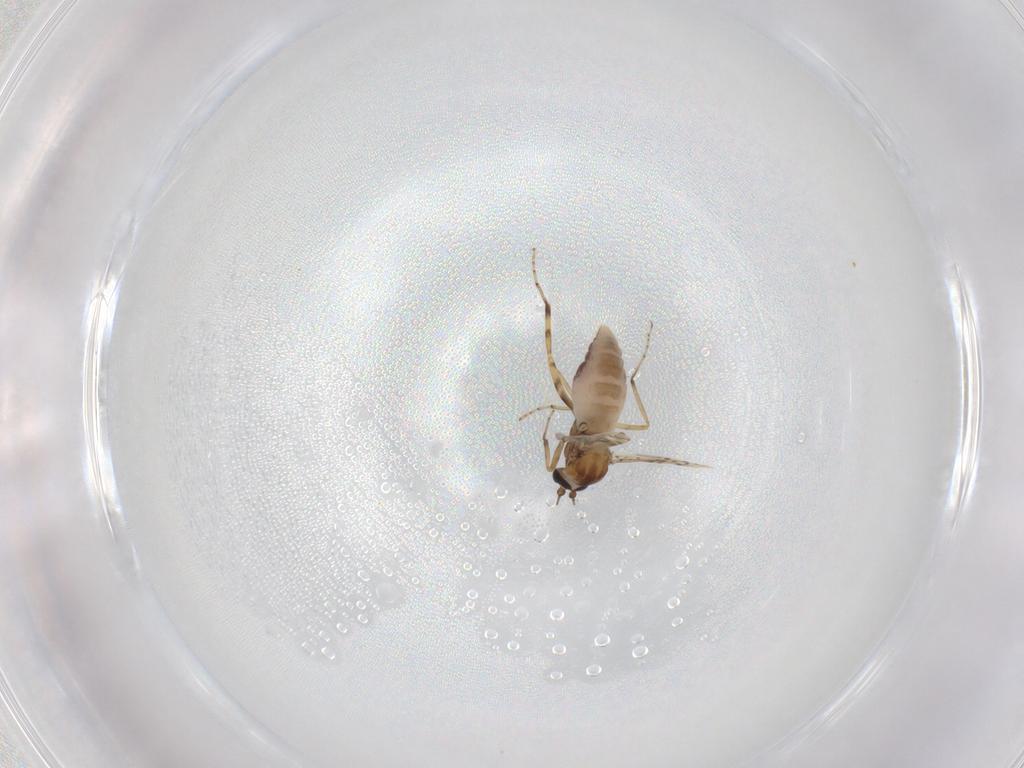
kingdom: Animalia
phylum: Arthropoda
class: Insecta
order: Diptera
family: Ceratopogonidae
